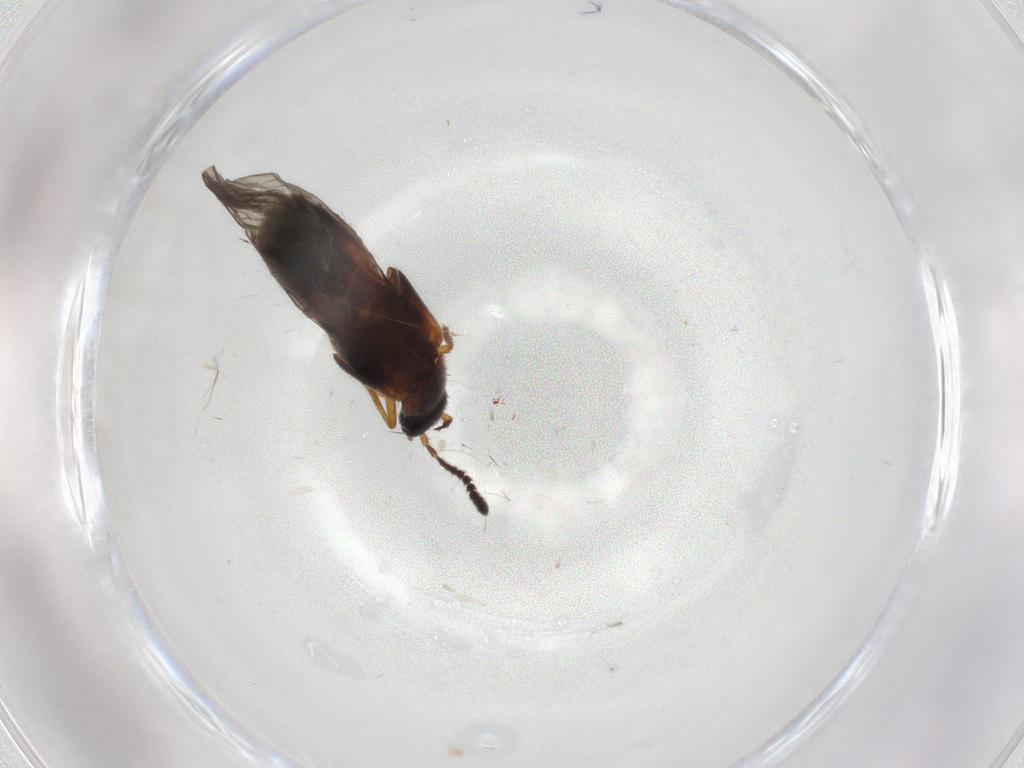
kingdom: Animalia
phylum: Arthropoda
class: Insecta
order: Coleoptera
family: Staphylinidae
